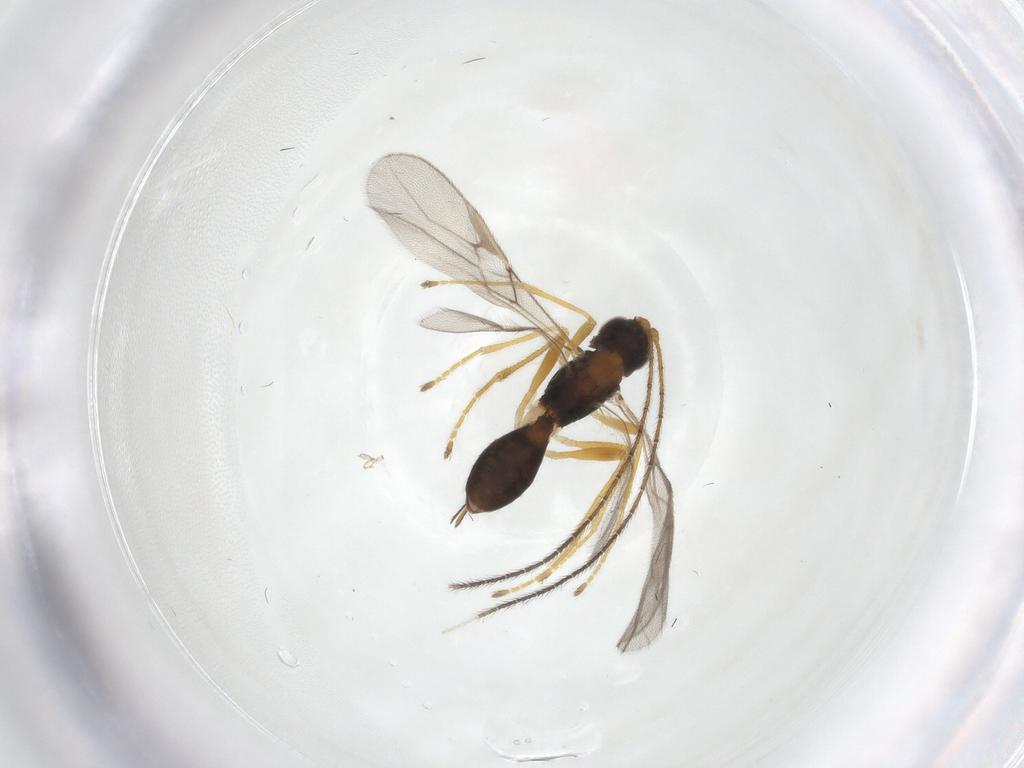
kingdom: Animalia
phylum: Arthropoda
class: Insecta
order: Hymenoptera
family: Braconidae
